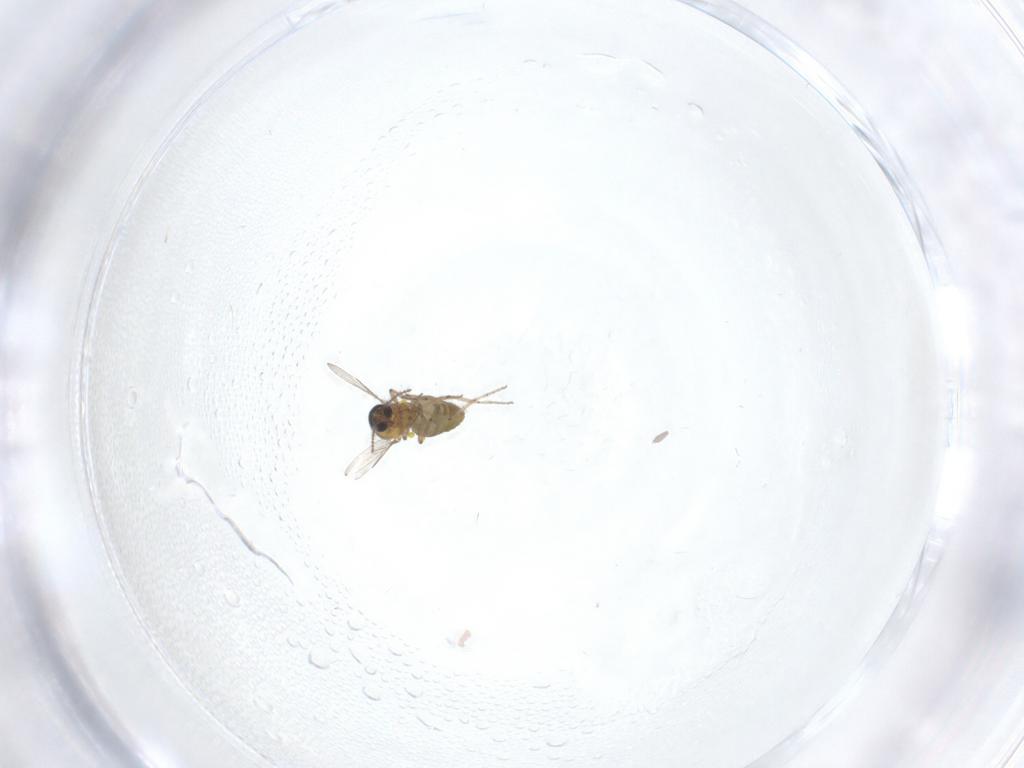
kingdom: Animalia
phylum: Arthropoda
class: Insecta
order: Diptera
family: Ceratopogonidae
